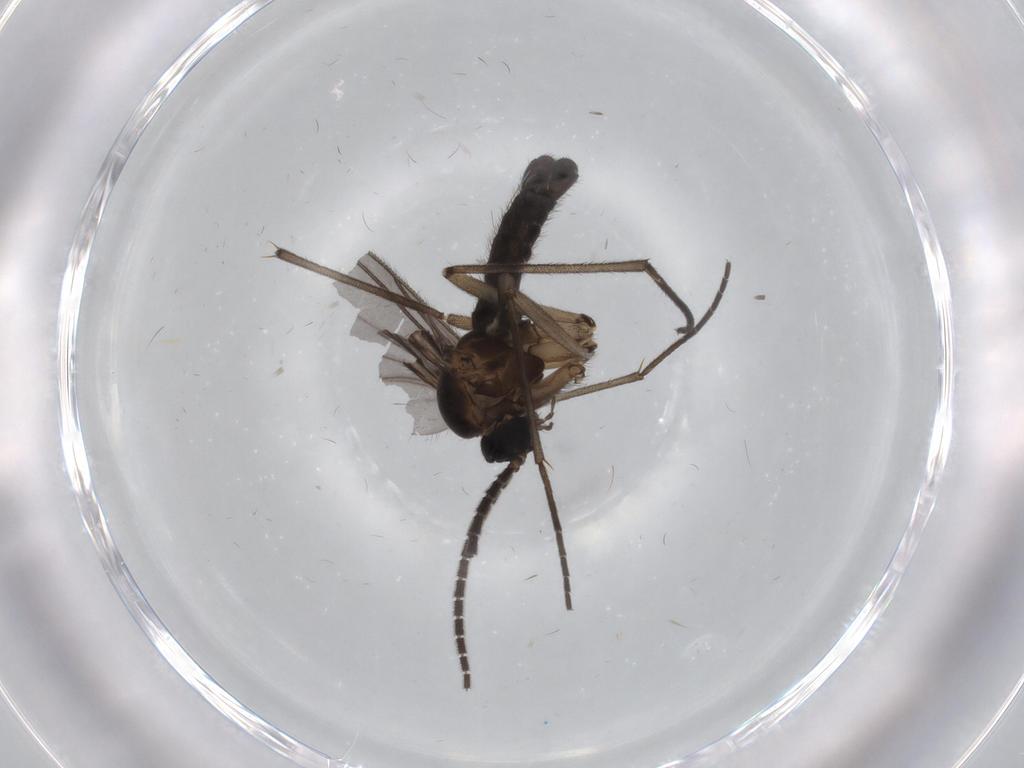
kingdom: Animalia
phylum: Arthropoda
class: Insecta
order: Diptera
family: Sciaridae
